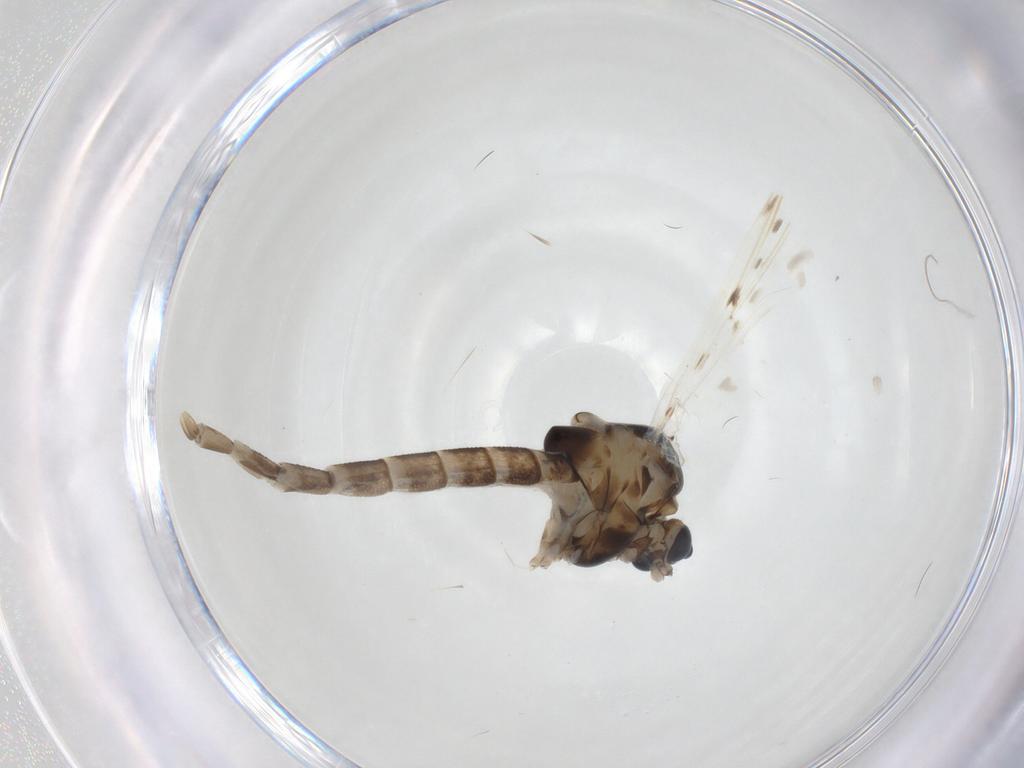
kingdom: Animalia
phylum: Arthropoda
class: Insecta
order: Diptera
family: Chironomidae
